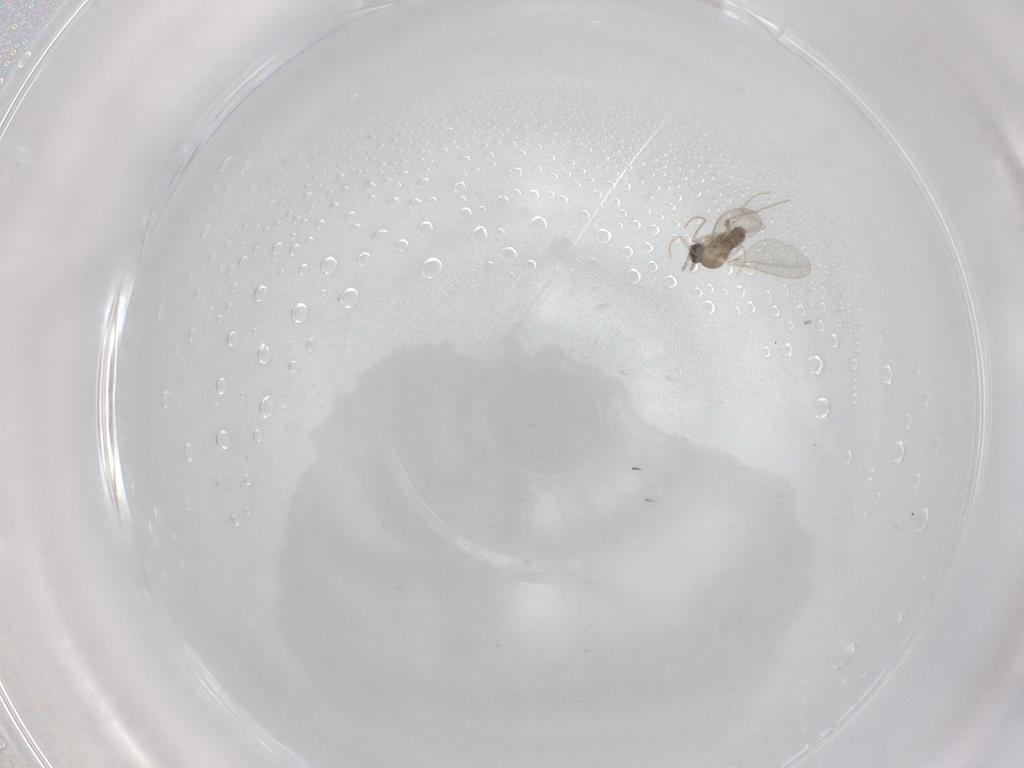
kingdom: Animalia
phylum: Arthropoda
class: Insecta
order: Diptera
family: Cecidomyiidae
